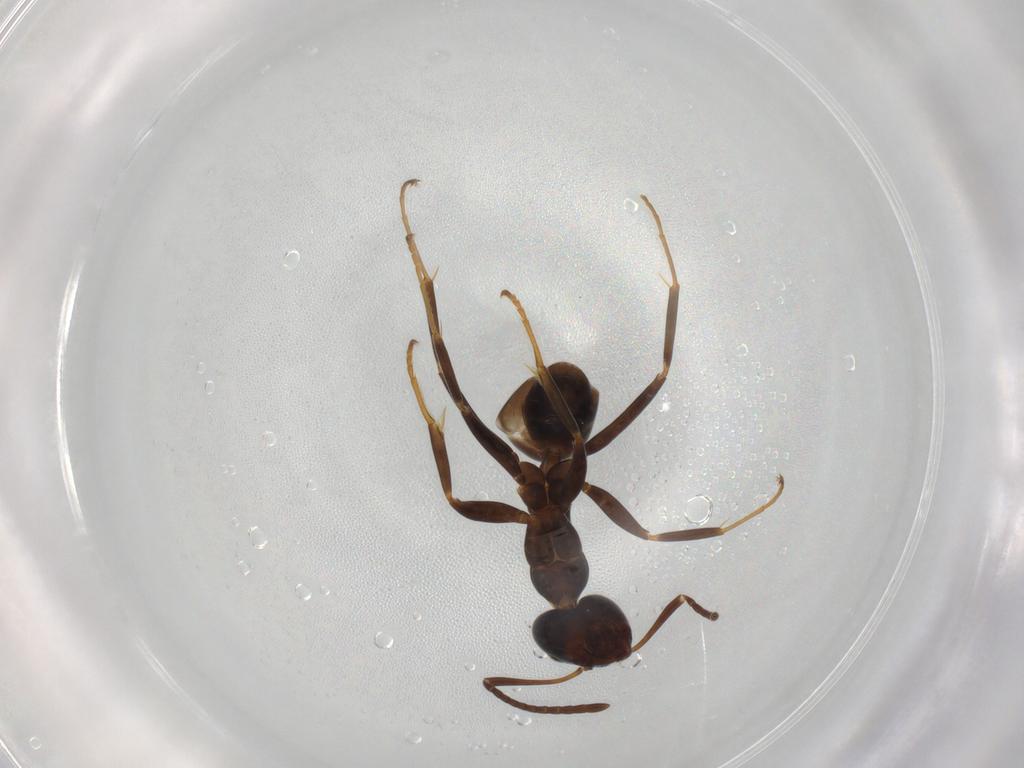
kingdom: Animalia
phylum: Arthropoda
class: Insecta
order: Hymenoptera
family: Formicidae
